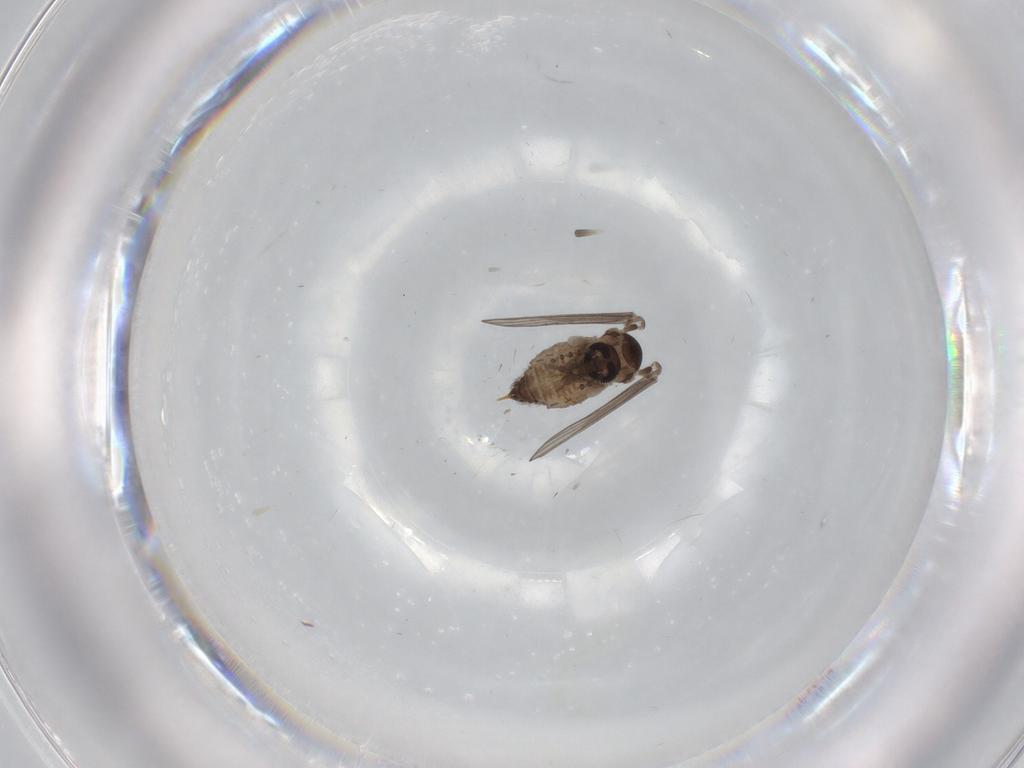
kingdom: Animalia
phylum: Arthropoda
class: Insecta
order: Diptera
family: Psychodidae
